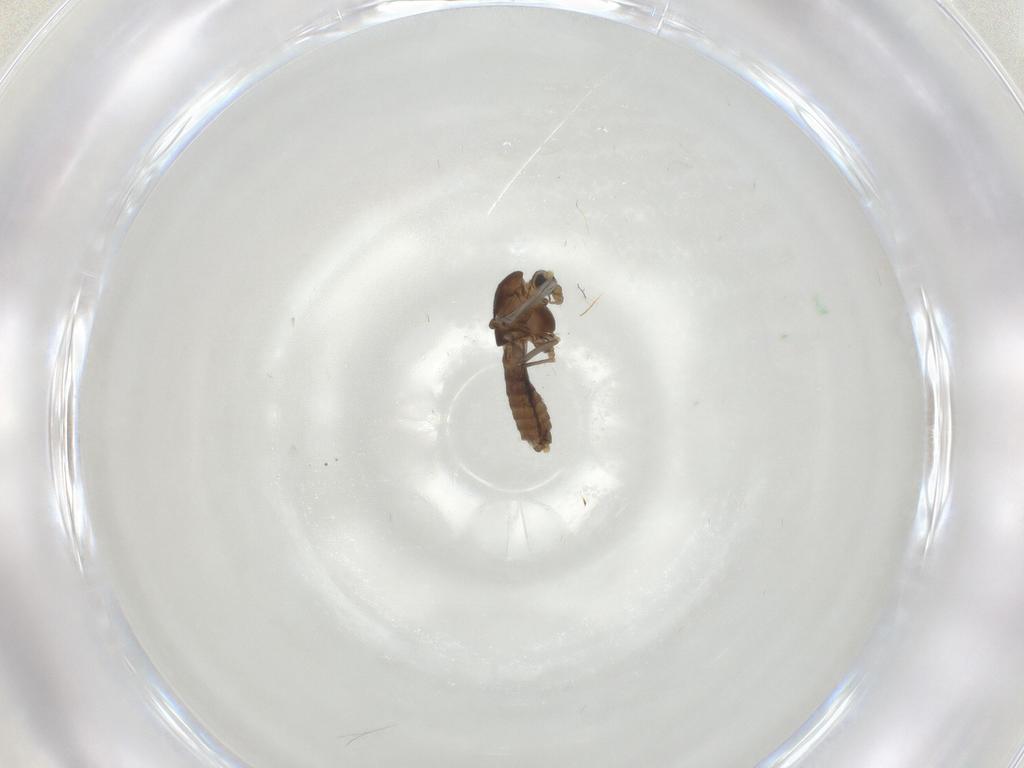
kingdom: Animalia
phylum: Arthropoda
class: Insecta
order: Diptera
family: Chironomidae
